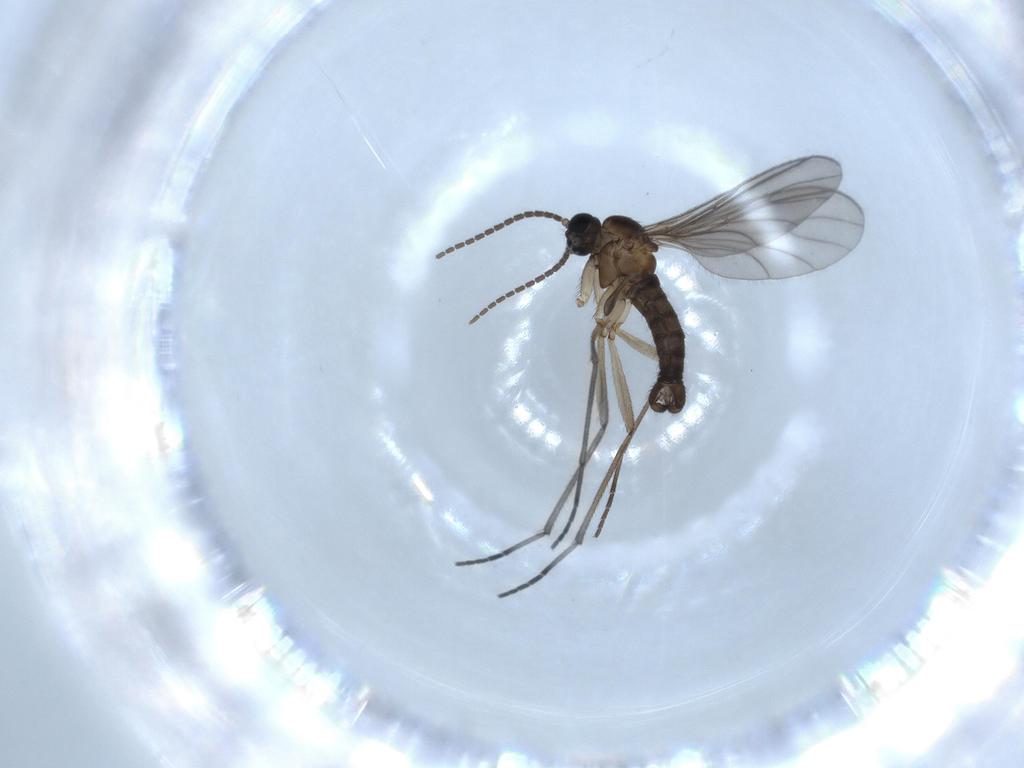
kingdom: Animalia
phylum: Arthropoda
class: Insecta
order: Diptera
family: Sciaridae
